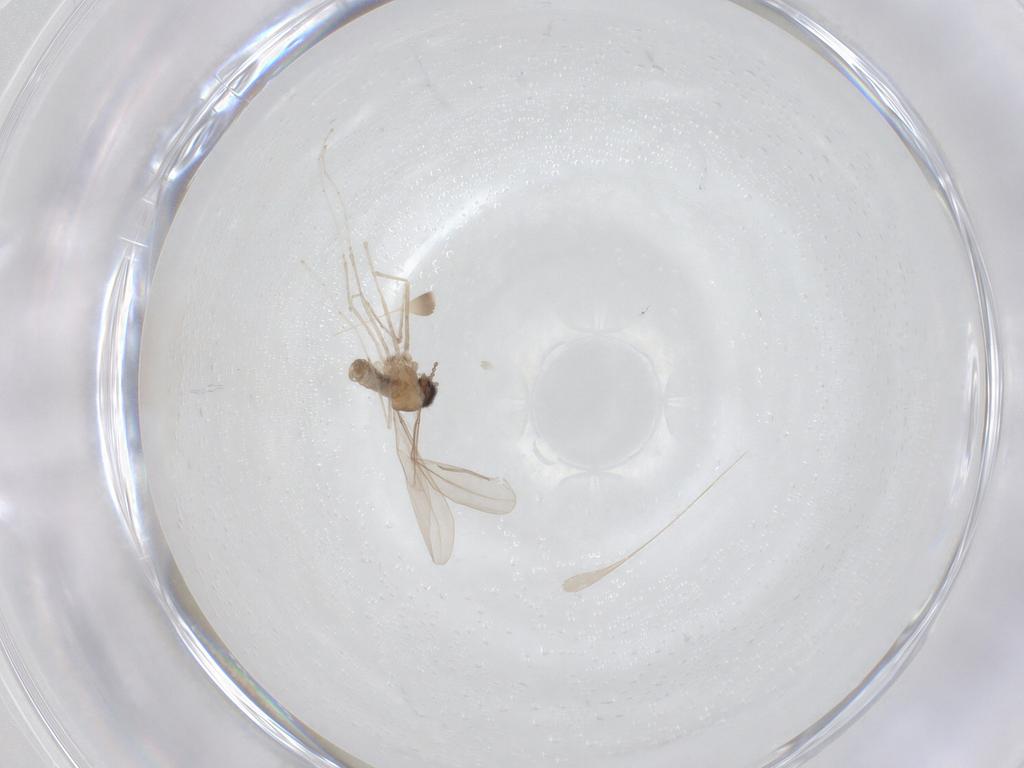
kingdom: Animalia
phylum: Arthropoda
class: Insecta
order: Diptera
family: Cecidomyiidae
